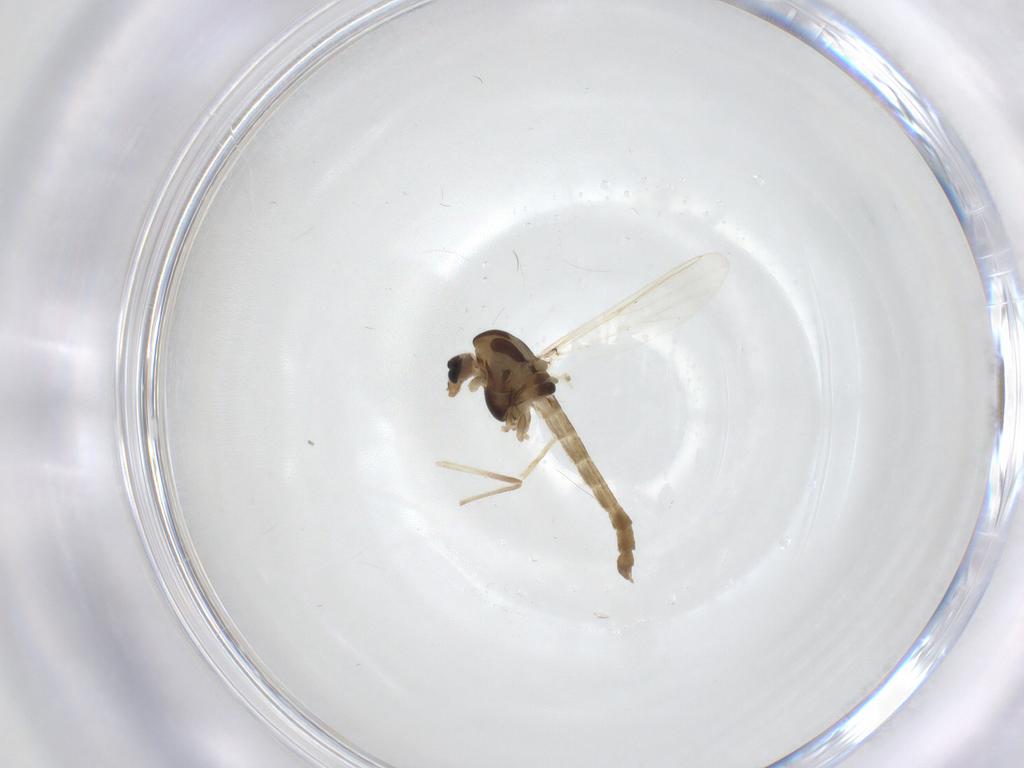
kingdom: Animalia
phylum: Arthropoda
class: Insecta
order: Diptera
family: Chironomidae
